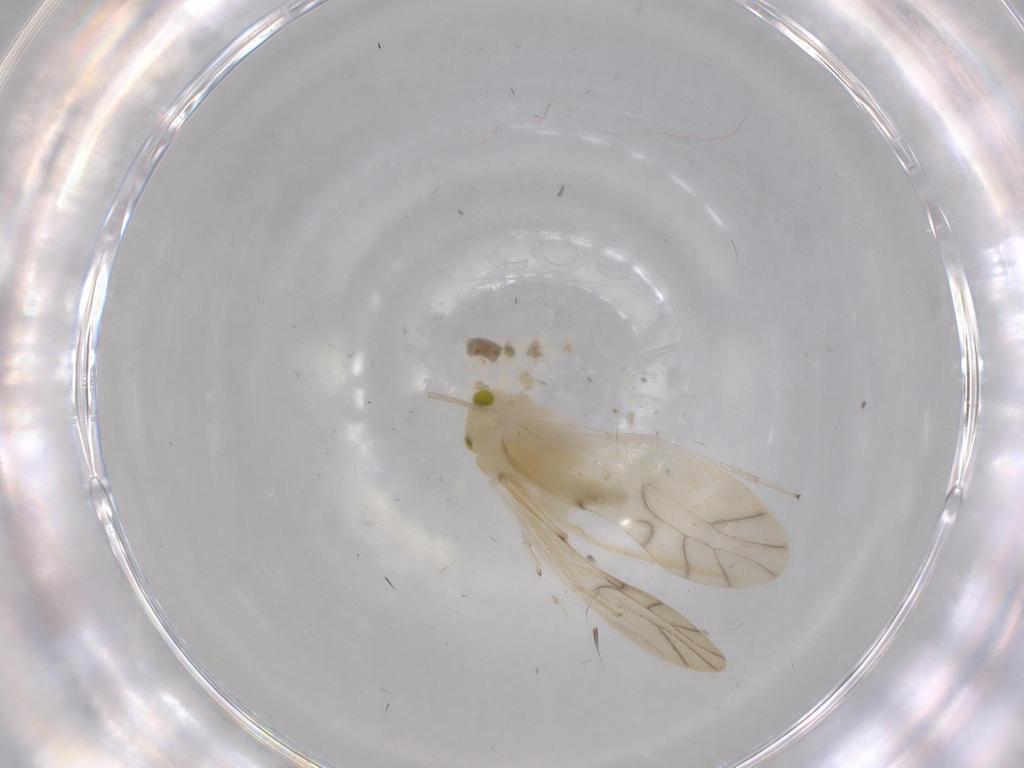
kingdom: Animalia
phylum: Arthropoda
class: Insecta
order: Psocodea
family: Caeciliusidae
